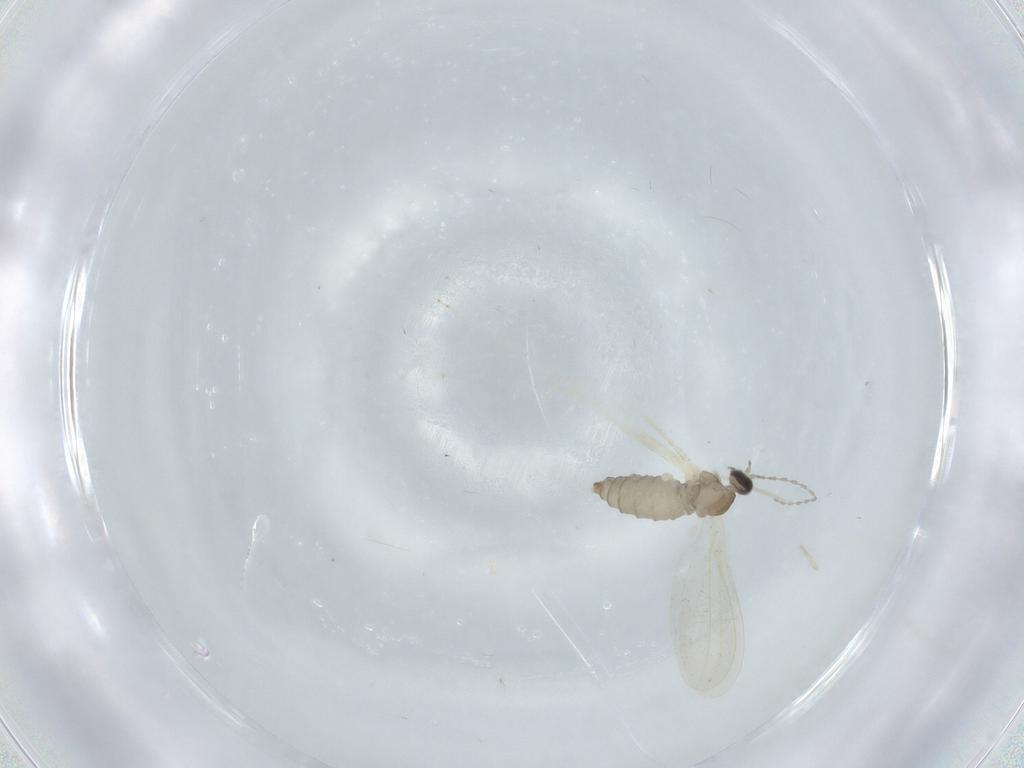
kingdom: Animalia
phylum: Arthropoda
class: Insecta
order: Diptera
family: Cecidomyiidae
